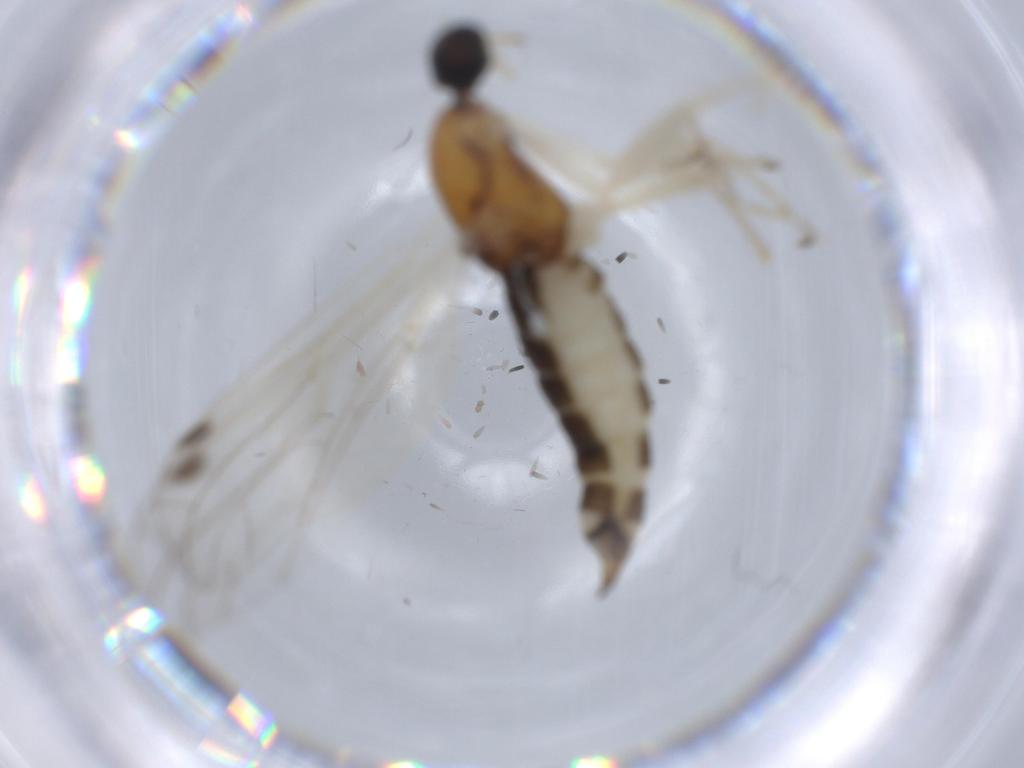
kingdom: Animalia
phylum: Arthropoda
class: Insecta
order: Diptera
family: Empididae
